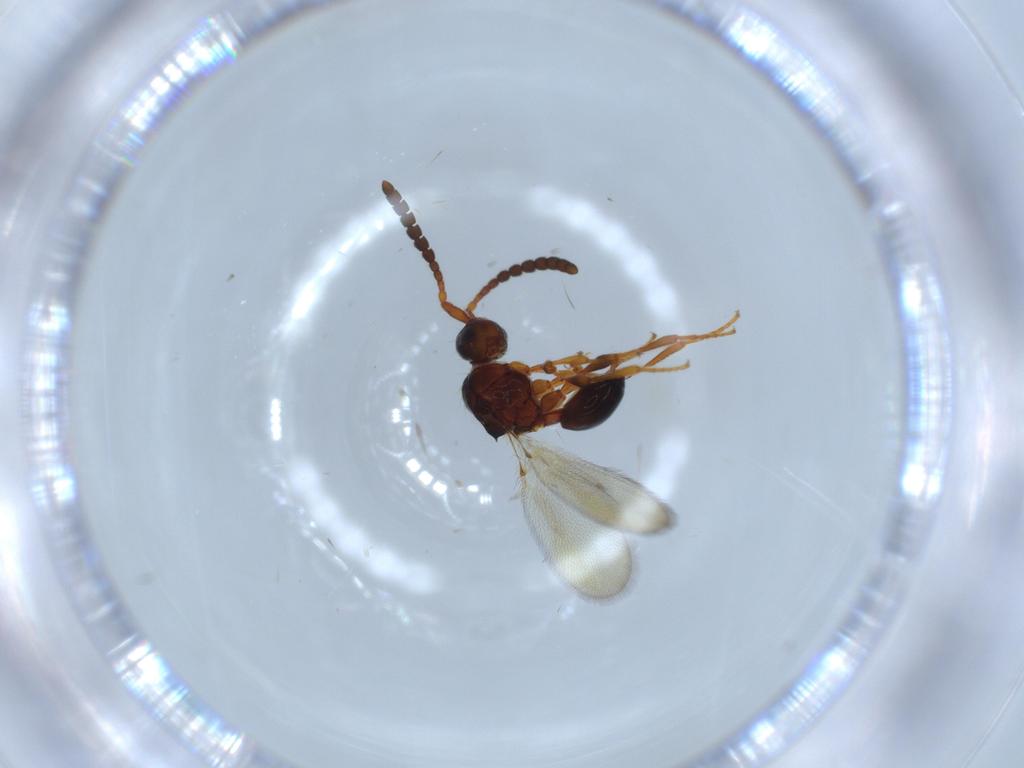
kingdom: Animalia
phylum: Arthropoda
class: Insecta
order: Hymenoptera
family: Diapriidae
